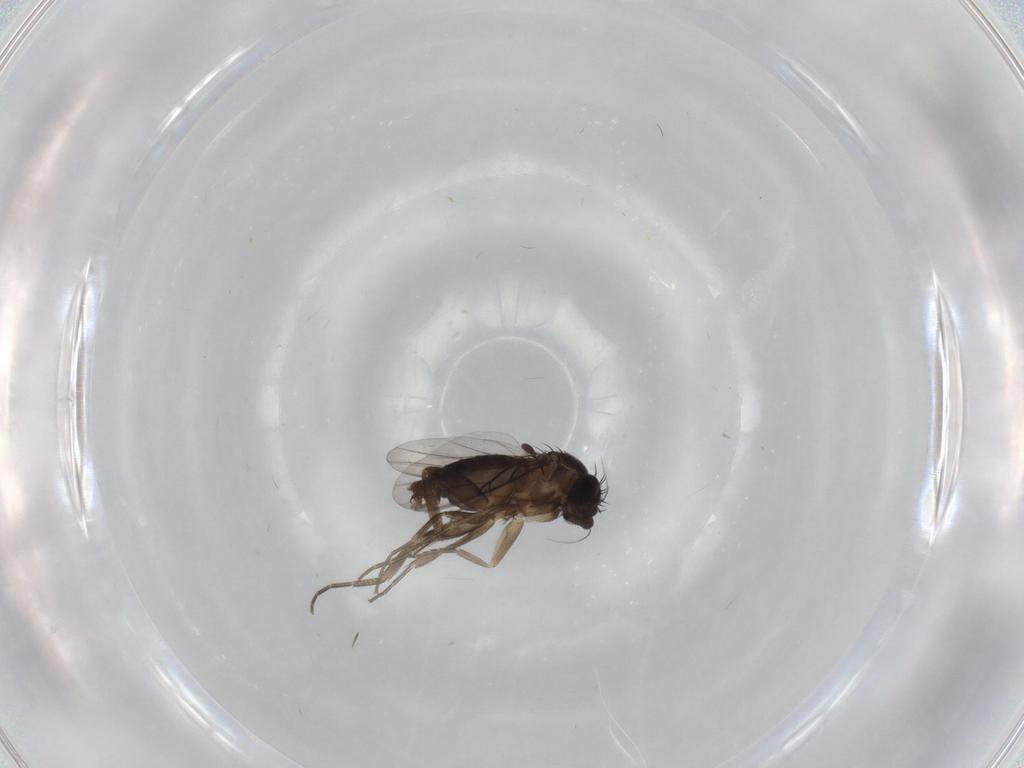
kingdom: Animalia
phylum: Arthropoda
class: Insecta
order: Diptera
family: Phoridae
